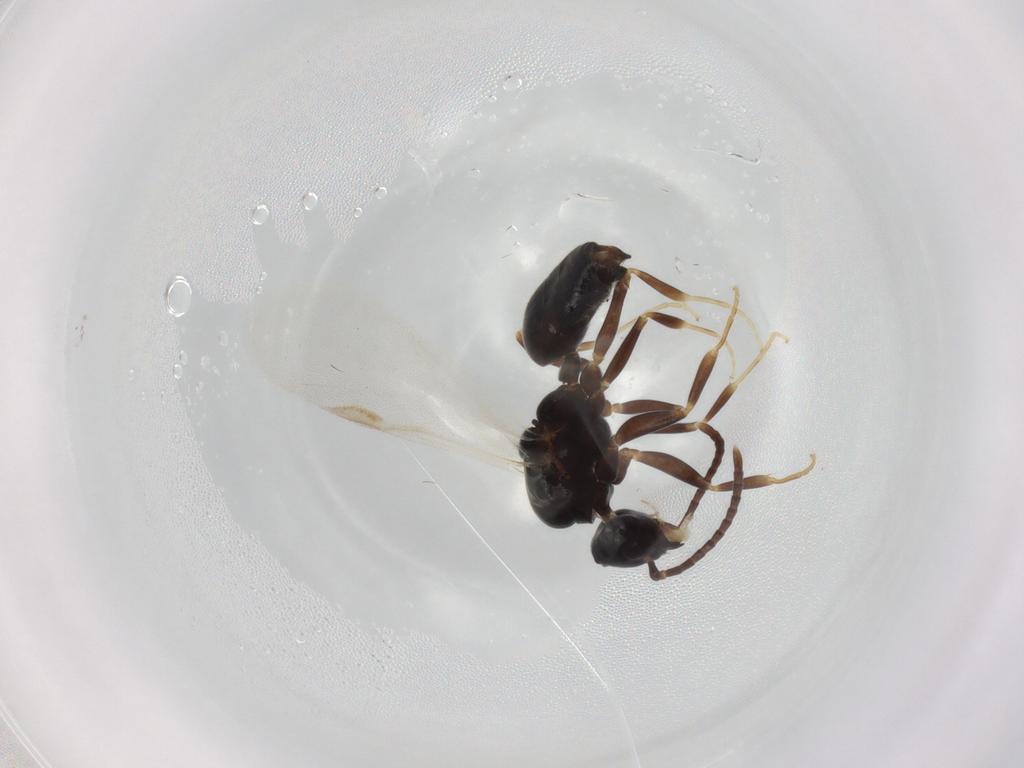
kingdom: Animalia
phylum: Arthropoda
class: Insecta
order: Hymenoptera
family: Formicidae
